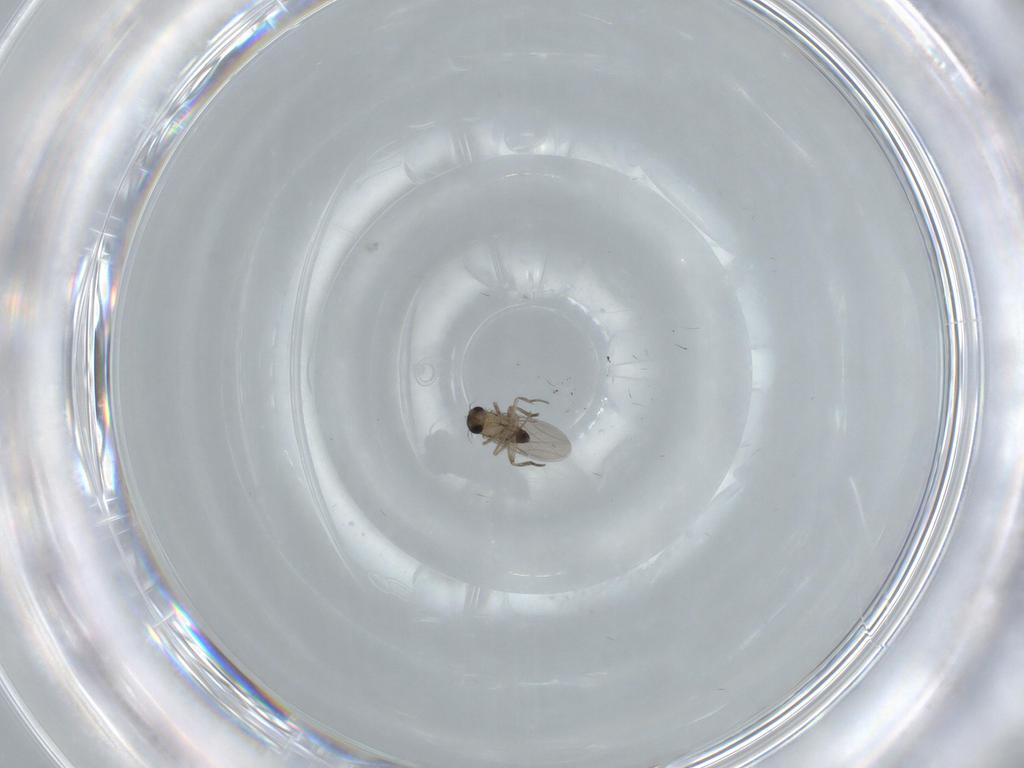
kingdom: Animalia
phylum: Arthropoda
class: Insecta
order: Diptera
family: Phoridae
